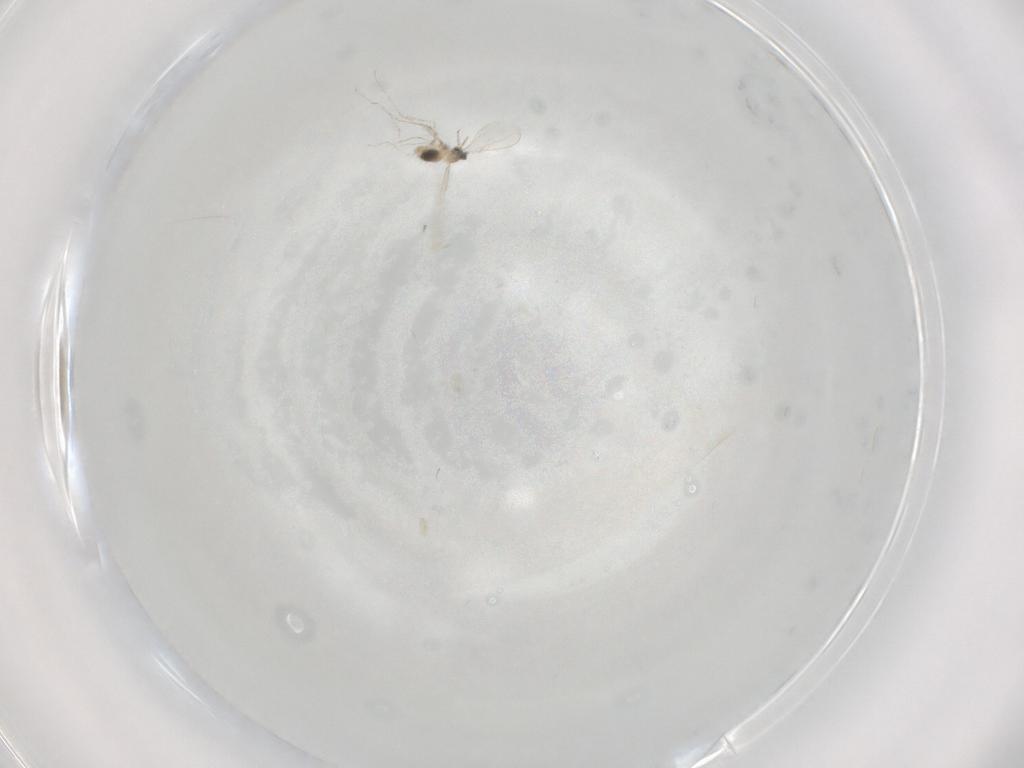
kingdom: Animalia
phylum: Arthropoda
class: Insecta
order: Diptera
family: Cecidomyiidae
